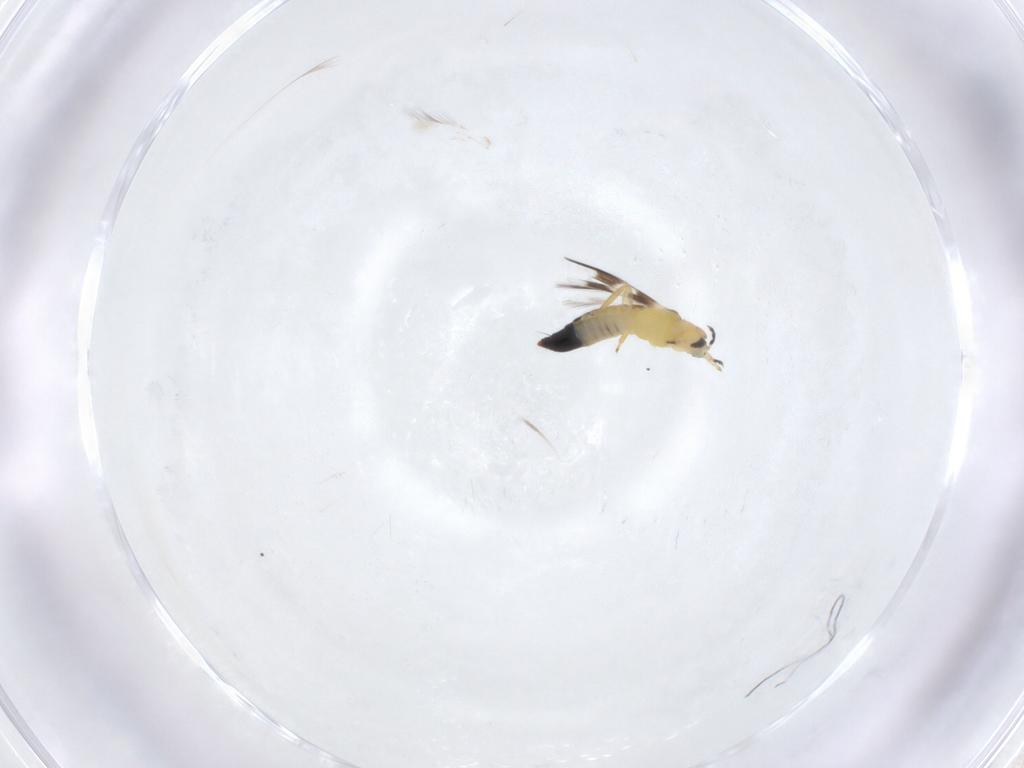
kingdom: Animalia
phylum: Arthropoda
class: Insecta
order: Thysanoptera
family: Aeolothripidae
